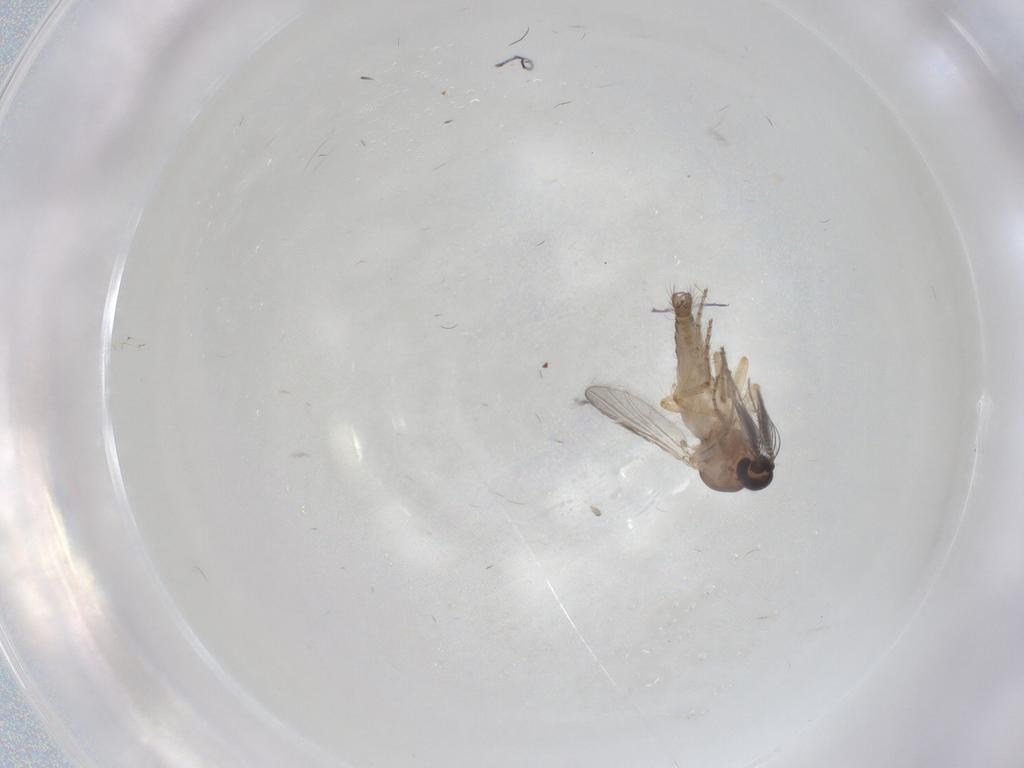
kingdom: Animalia
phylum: Arthropoda
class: Insecta
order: Diptera
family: Ceratopogonidae
